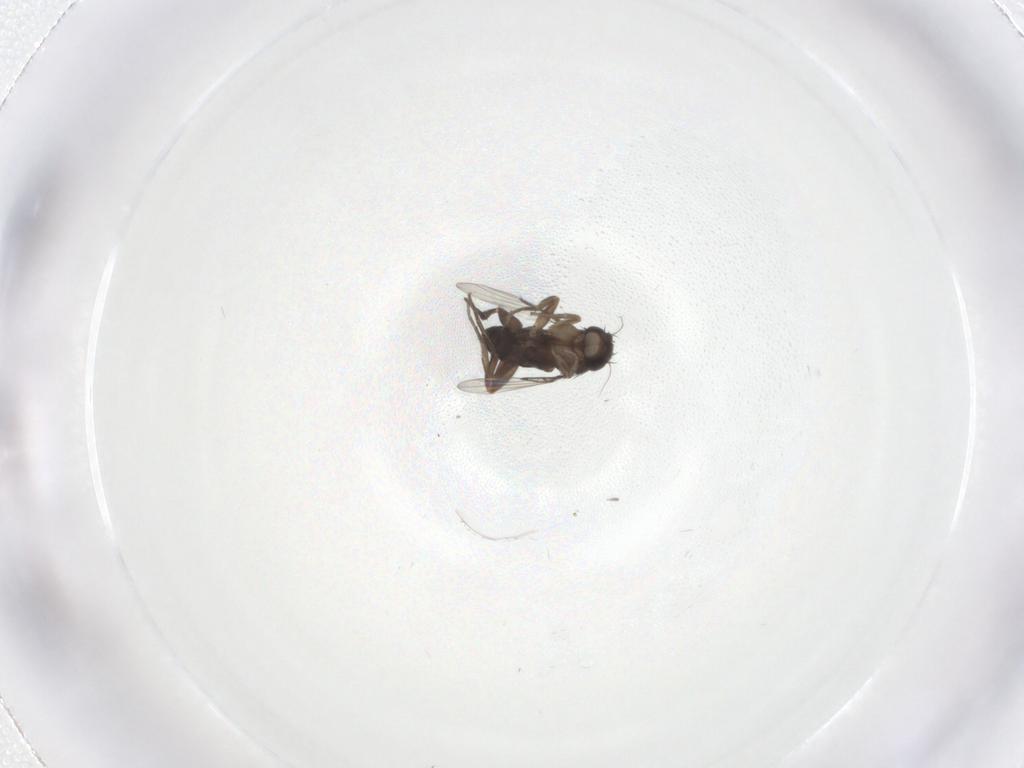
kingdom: Animalia
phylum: Arthropoda
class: Insecta
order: Diptera
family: Phoridae
